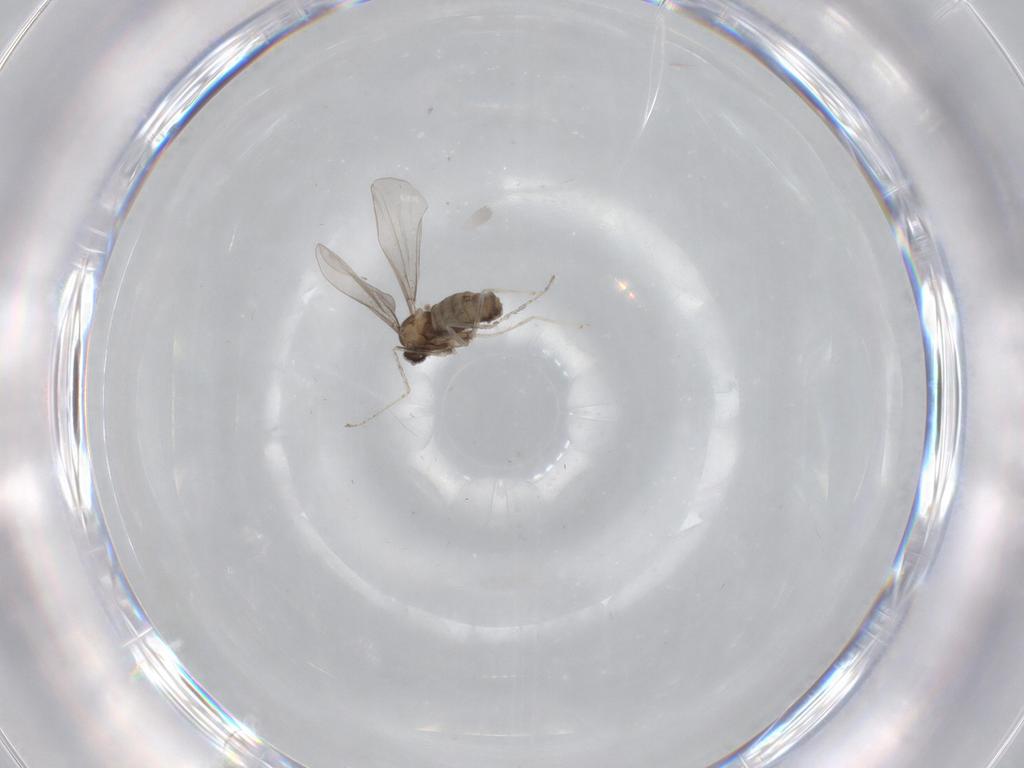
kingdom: Animalia
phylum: Arthropoda
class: Insecta
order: Diptera
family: Cecidomyiidae
